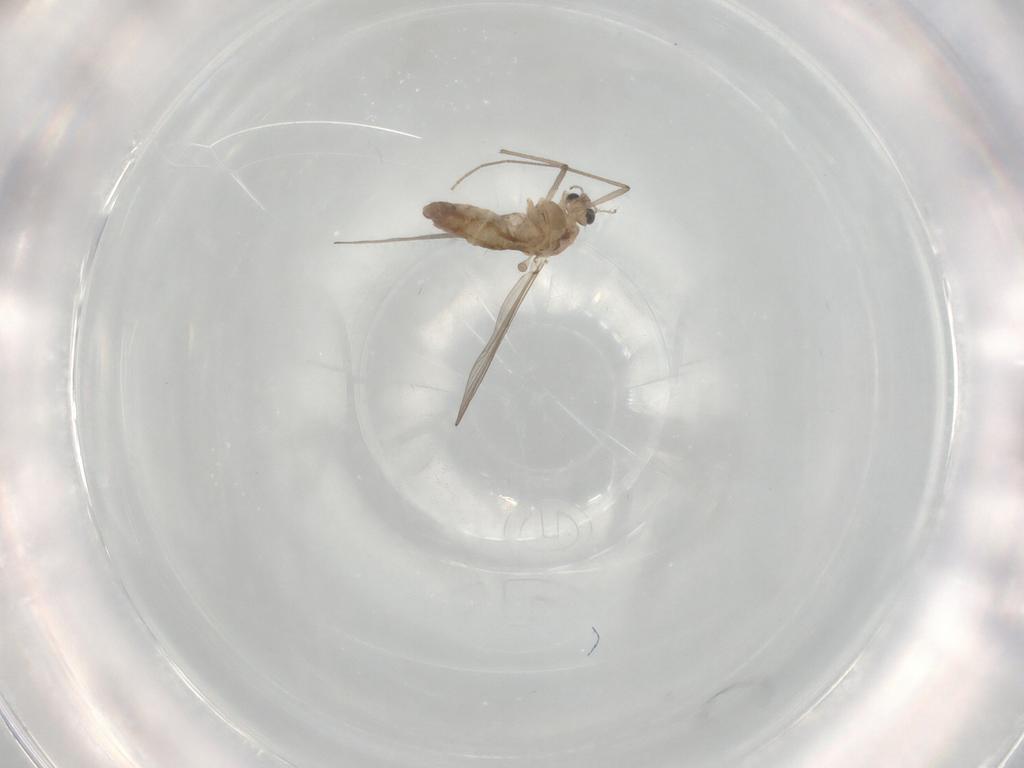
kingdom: Animalia
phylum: Arthropoda
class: Insecta
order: Diptera
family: Chironomidae
